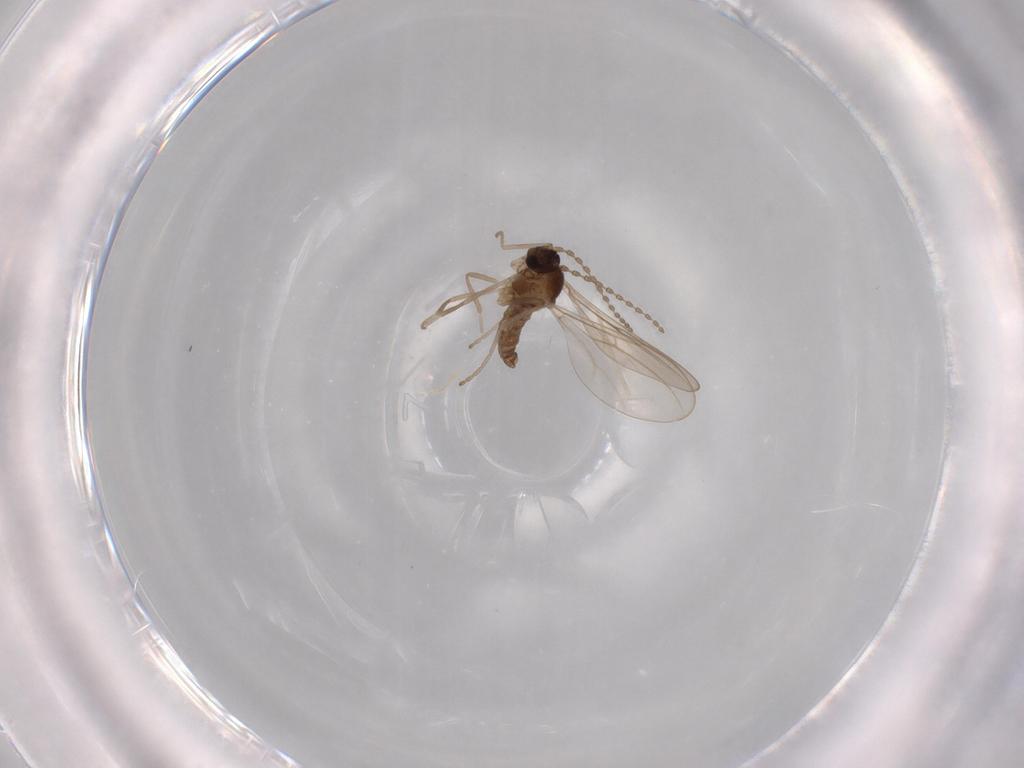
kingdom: Animalia
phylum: Arthropoda
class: Insecta
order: Diptera
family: Cecidomyiidae
